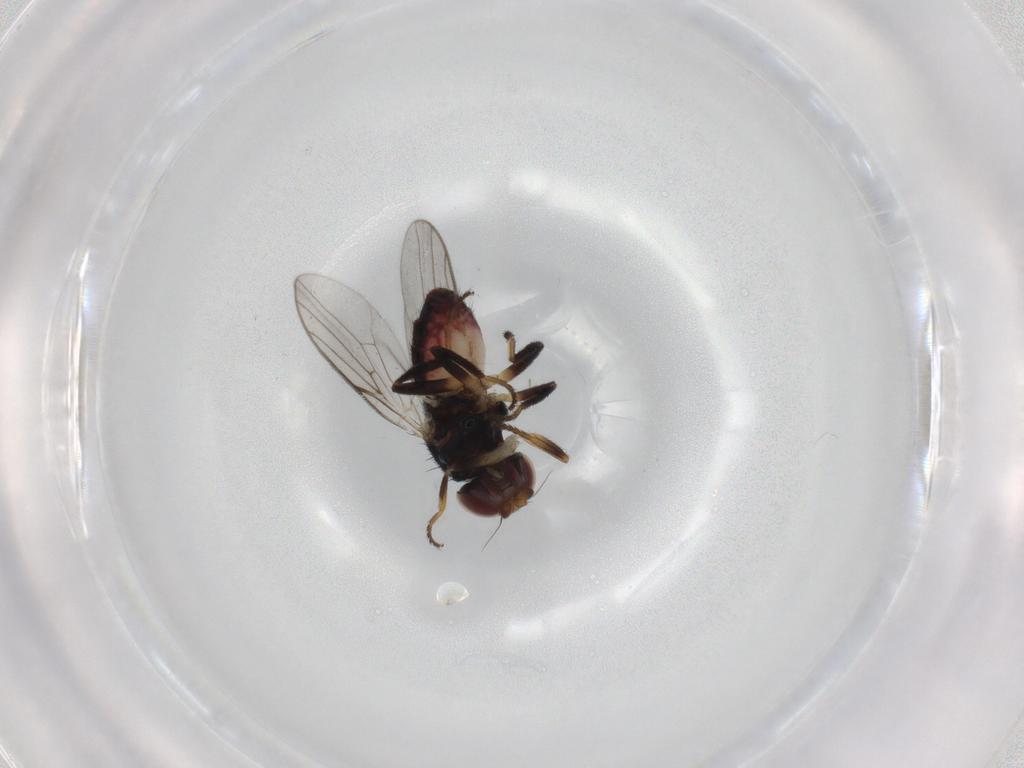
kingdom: Animalia
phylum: Arthropoda
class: Insecta
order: Diptera
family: Chloropidae
